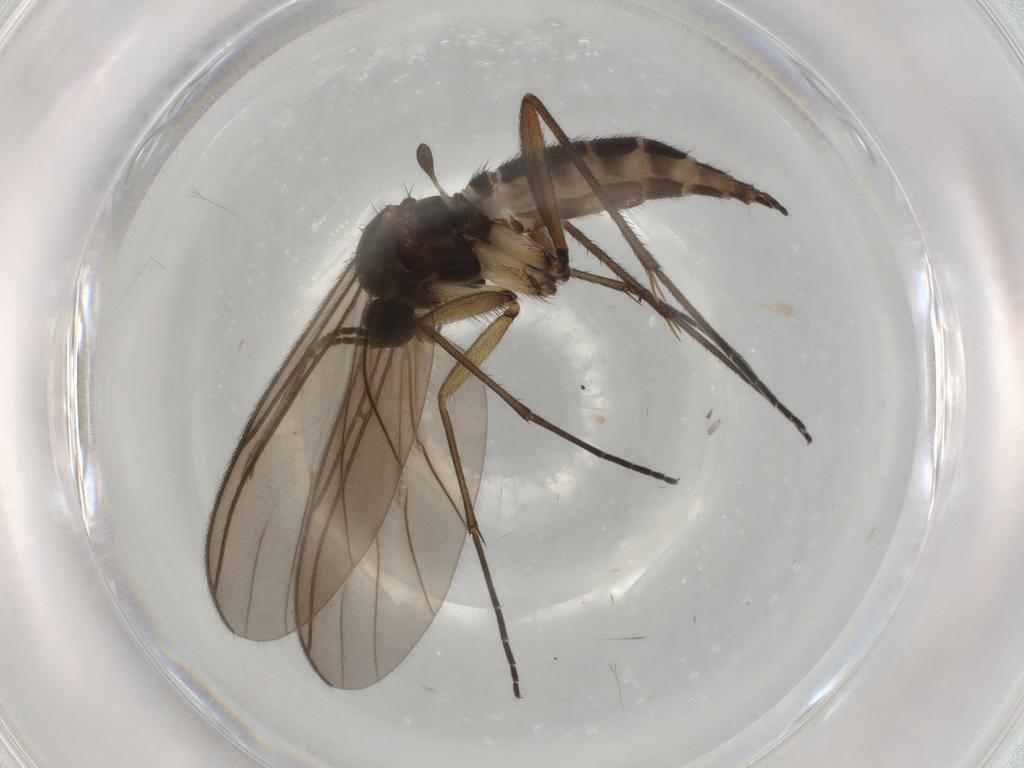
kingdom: Animalia
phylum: Arthropoda
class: Insecta
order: Diptera
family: Sciaridae
